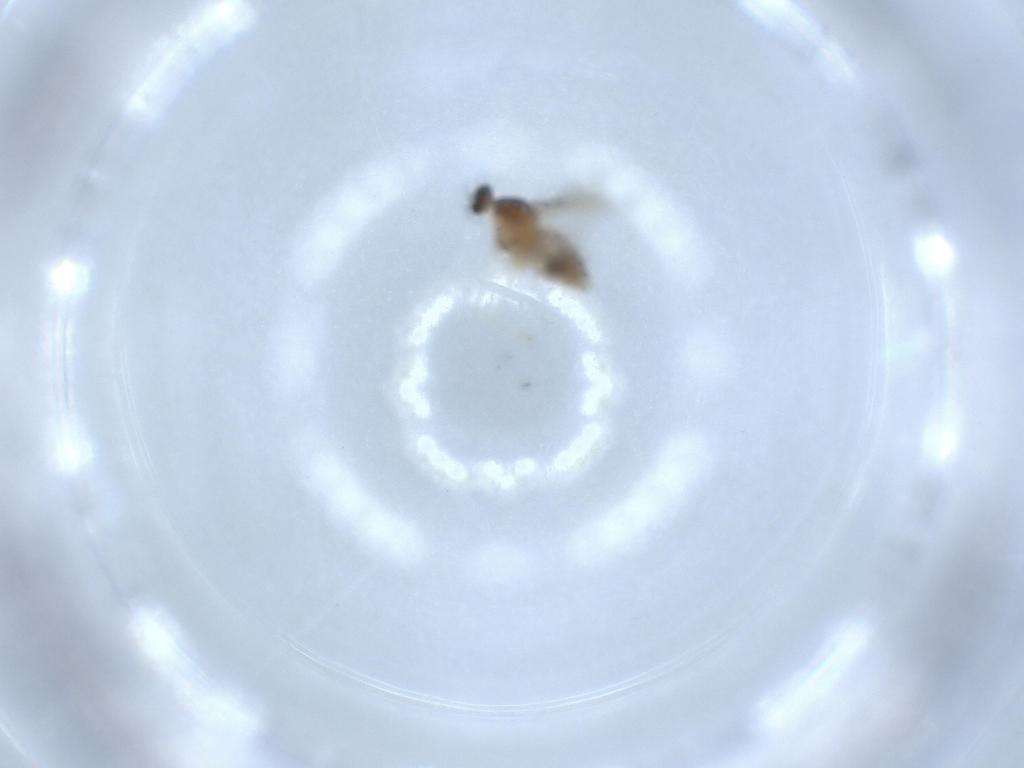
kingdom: Animalia
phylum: Arthropoda
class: Insecta
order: Diptera
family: Cecidomyiidae
